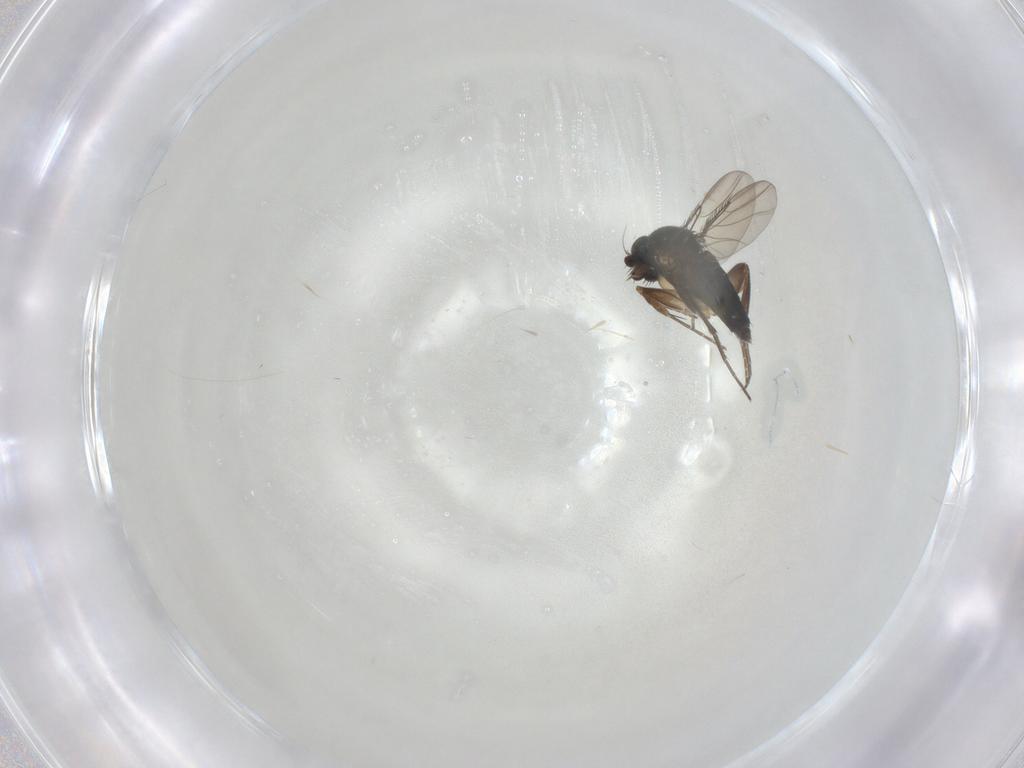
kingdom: Animalia
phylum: Arthropoda
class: Insecta
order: Diptera
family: Phoridae
